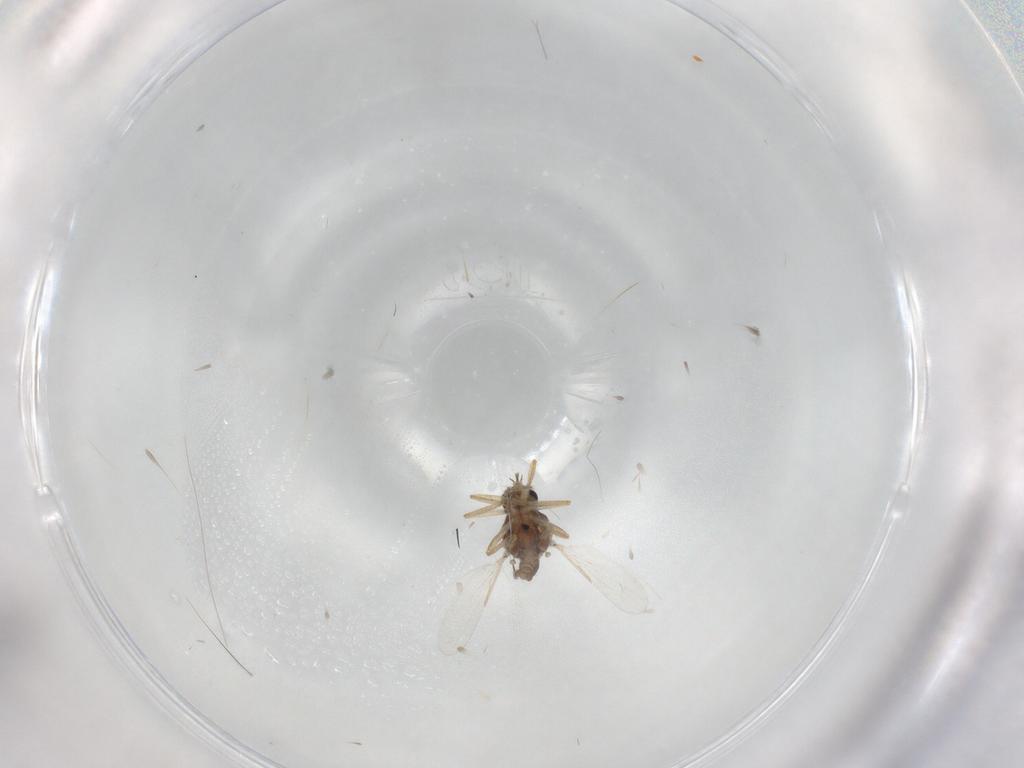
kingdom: Animalia
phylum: Arthropoda
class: Insecta
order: Diptera
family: Ceratopogonidae
